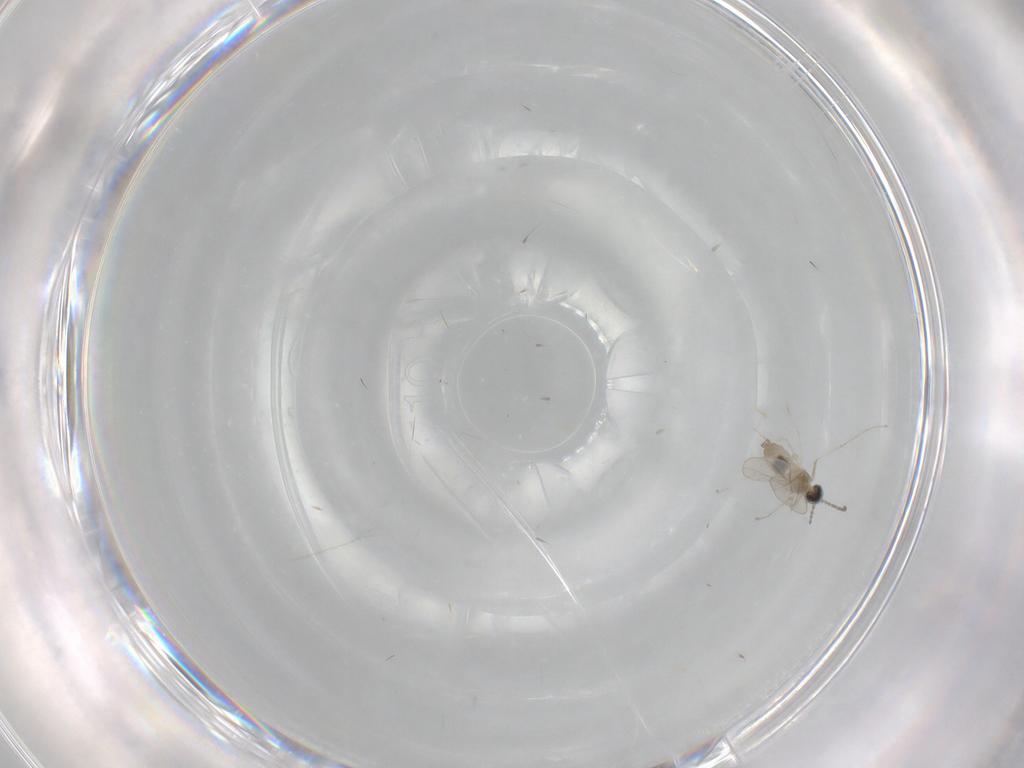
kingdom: Animalia
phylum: Arthropoda
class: Insecta
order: Diptera
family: Cecidomyiidae
